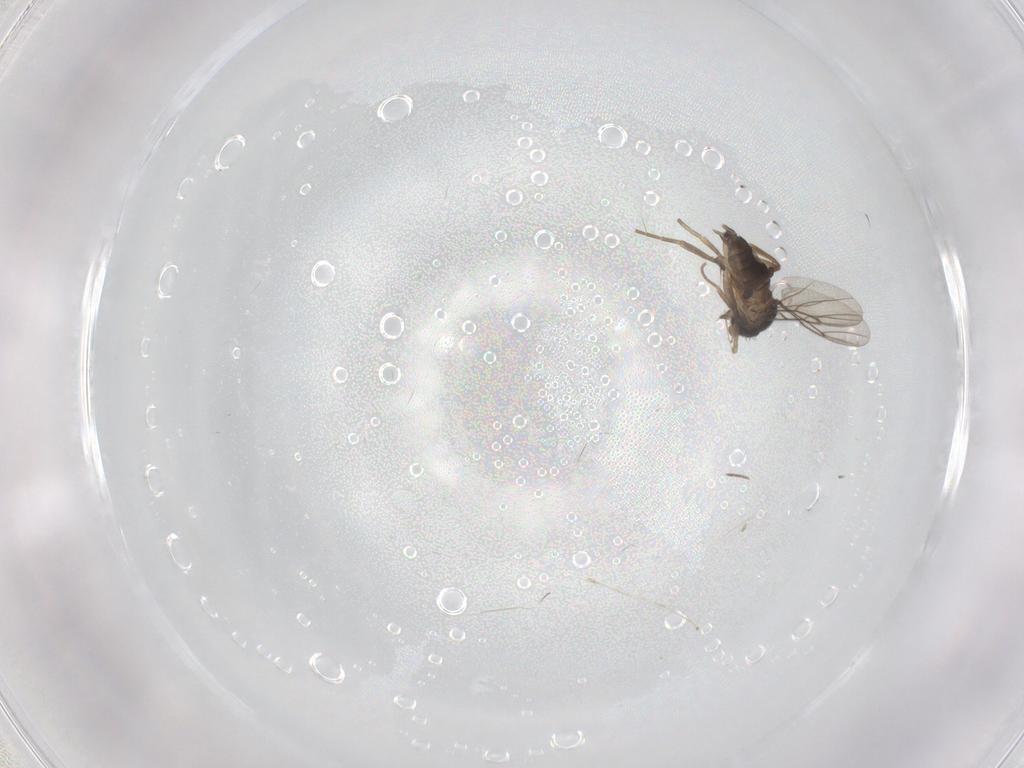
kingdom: Animalia
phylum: Arthropoda
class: Insecta
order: Diptera
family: Phoridae
